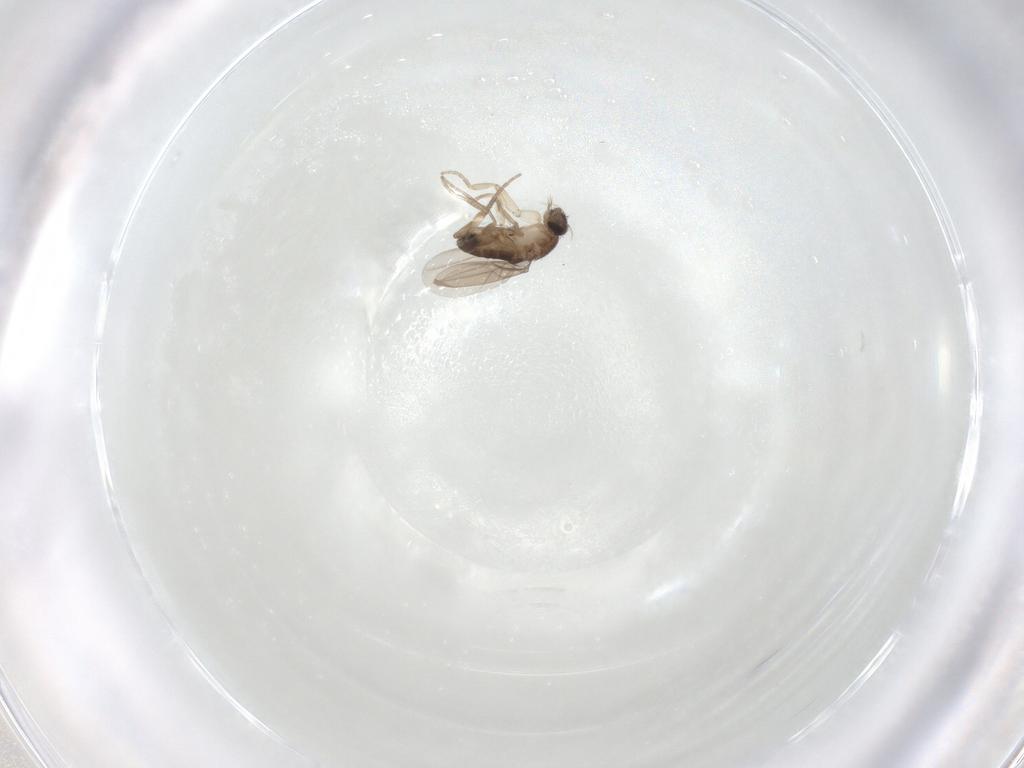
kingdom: Animalia
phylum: Arthropoda
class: Insecta
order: Diptera
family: Phoridae
